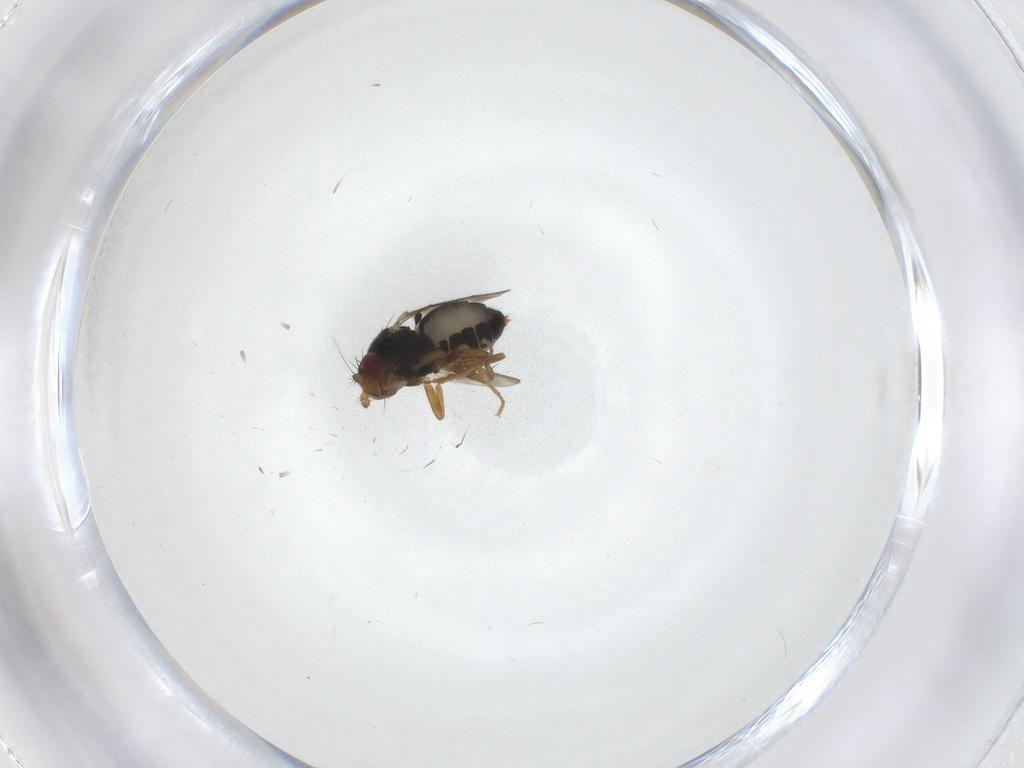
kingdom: Animalia
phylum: Arthropoda
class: Insecta
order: Diptera
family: Sphaeroceridae
